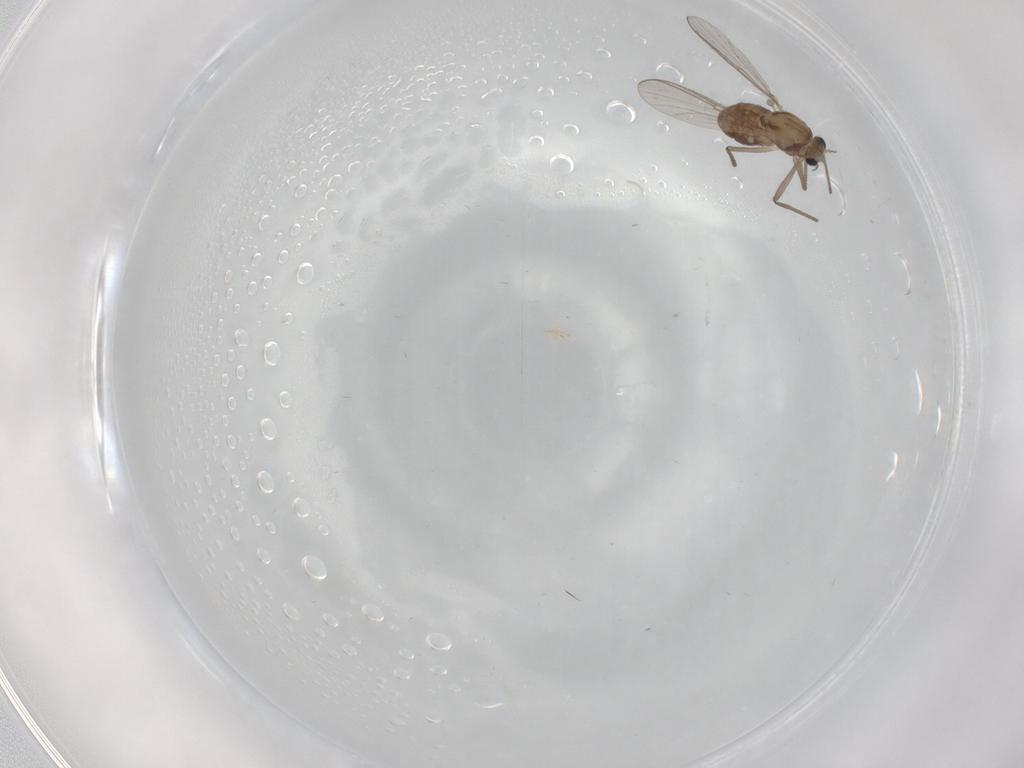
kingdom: Animalia
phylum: Arthropoda
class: Insecta
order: Diptera
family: Chironomidae
